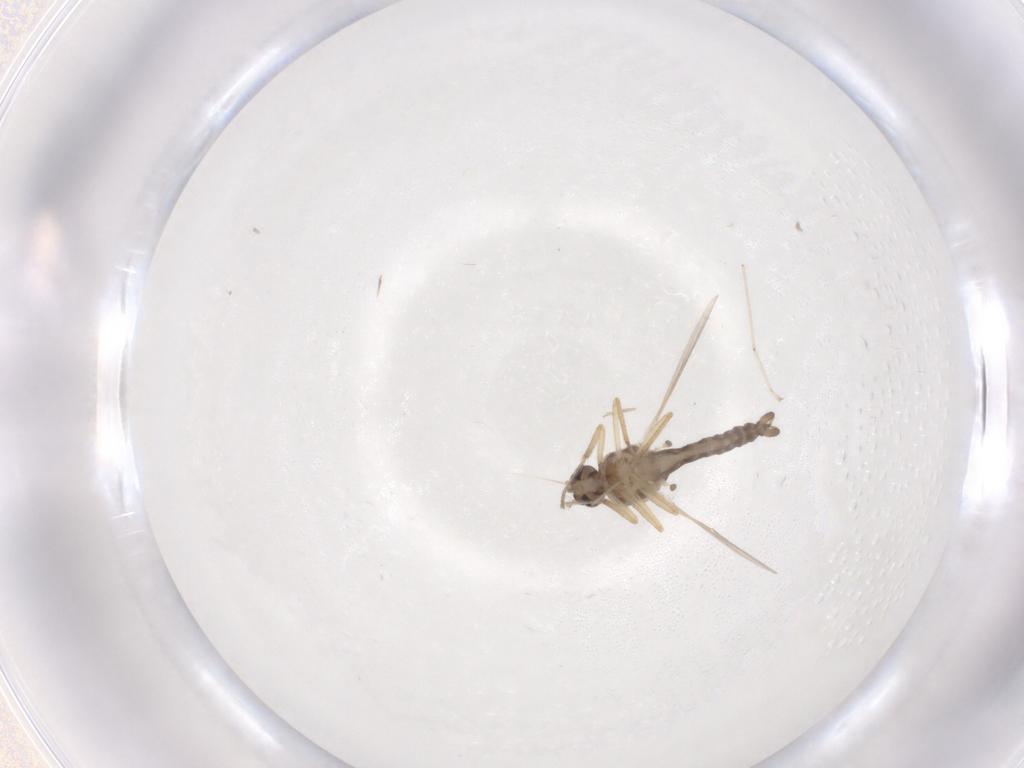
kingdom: Animalia
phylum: Arthropoda
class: Insecta
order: Diptera
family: Ceratopogonidae
